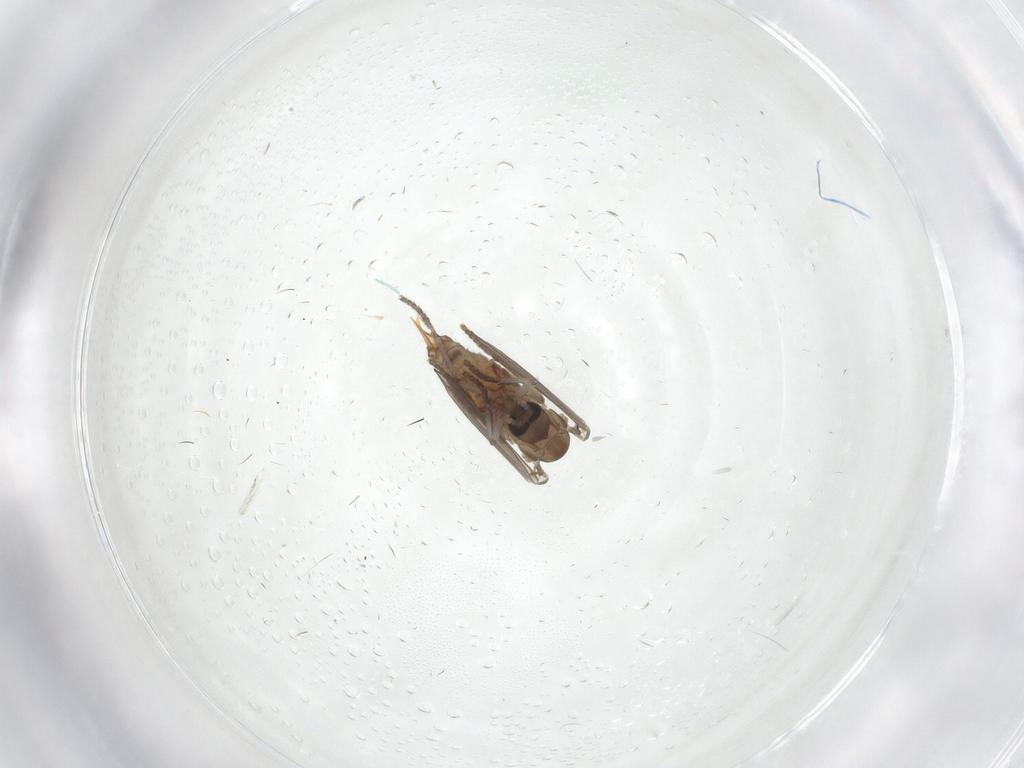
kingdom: Animalia
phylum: Arthropoda
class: Insecta
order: Diptera
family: Psychodidae
